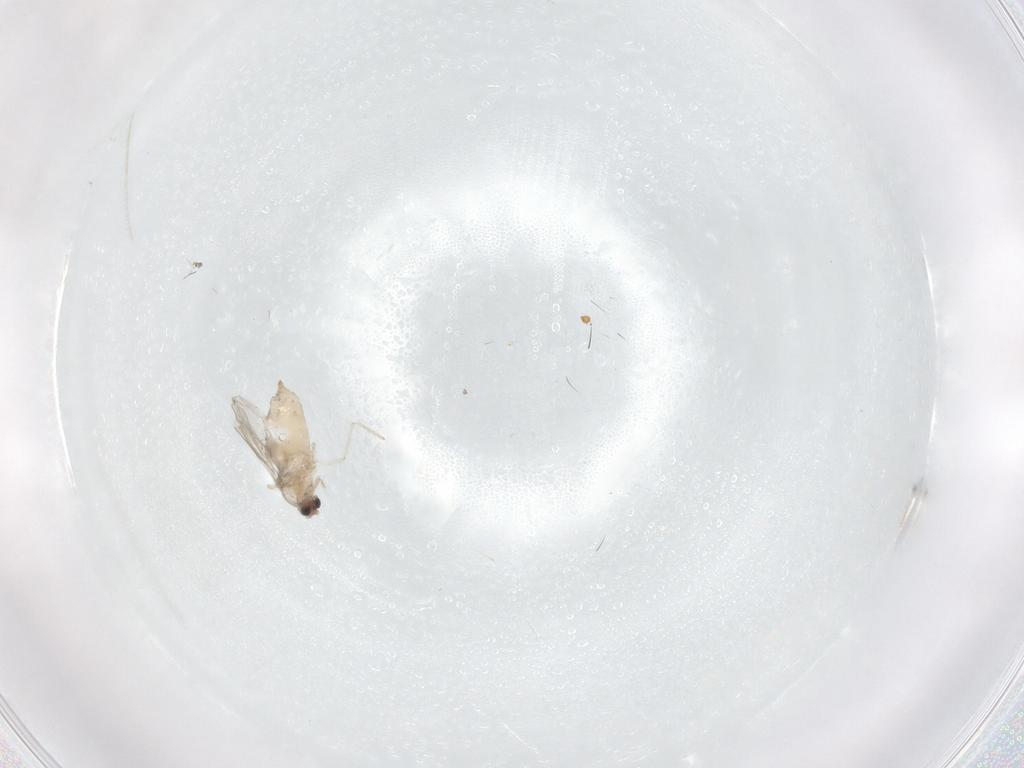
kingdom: Animalia
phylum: Arthropoda
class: Insecta
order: Diptera
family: Cecidomyiidae
